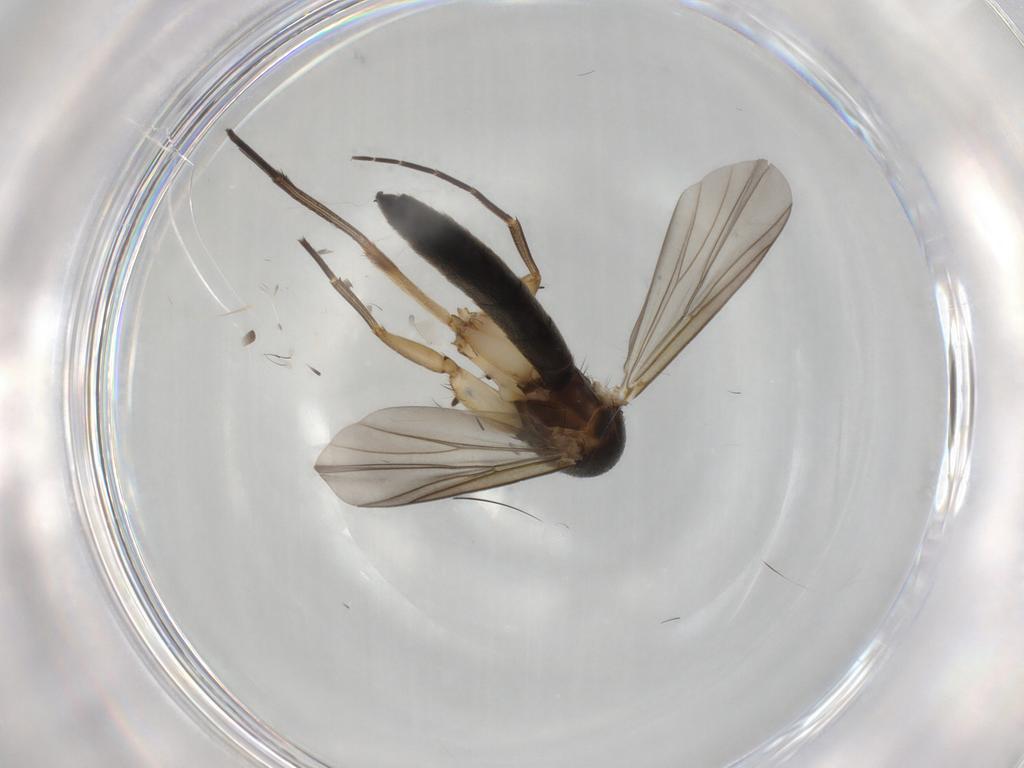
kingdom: Animalia
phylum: Arthropoda
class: Insecta
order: Diptera
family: Mycetophilidae
